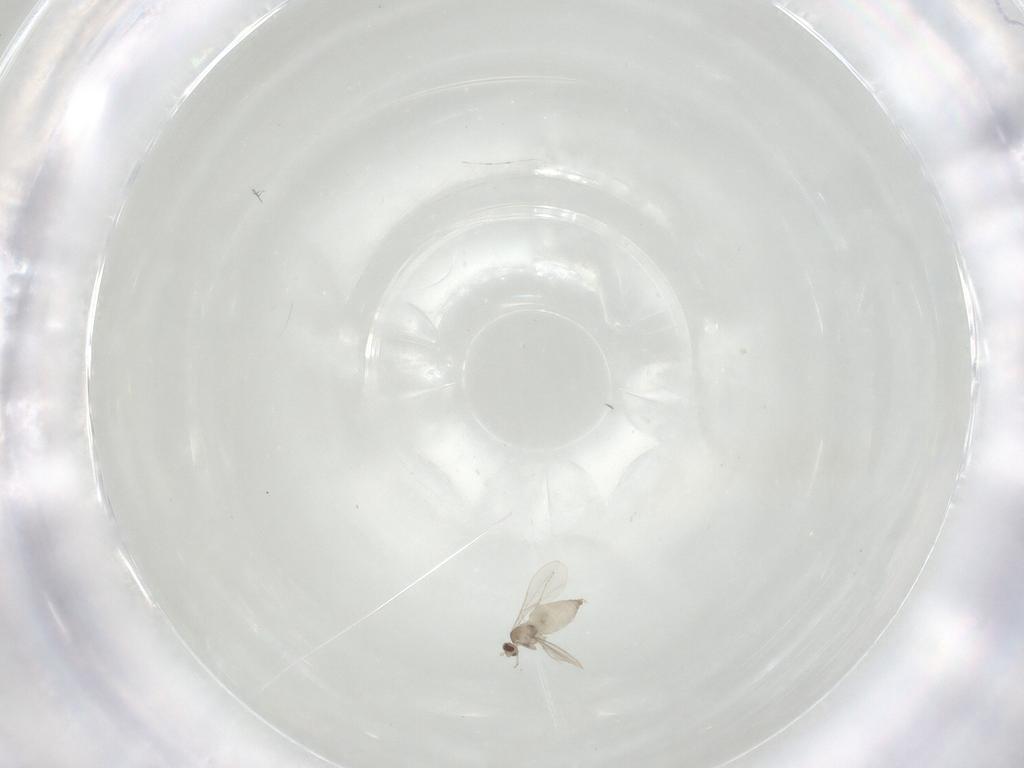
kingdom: Animalia
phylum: Arthropoda
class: Insecta
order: Diptera
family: Cecidomyiidae
